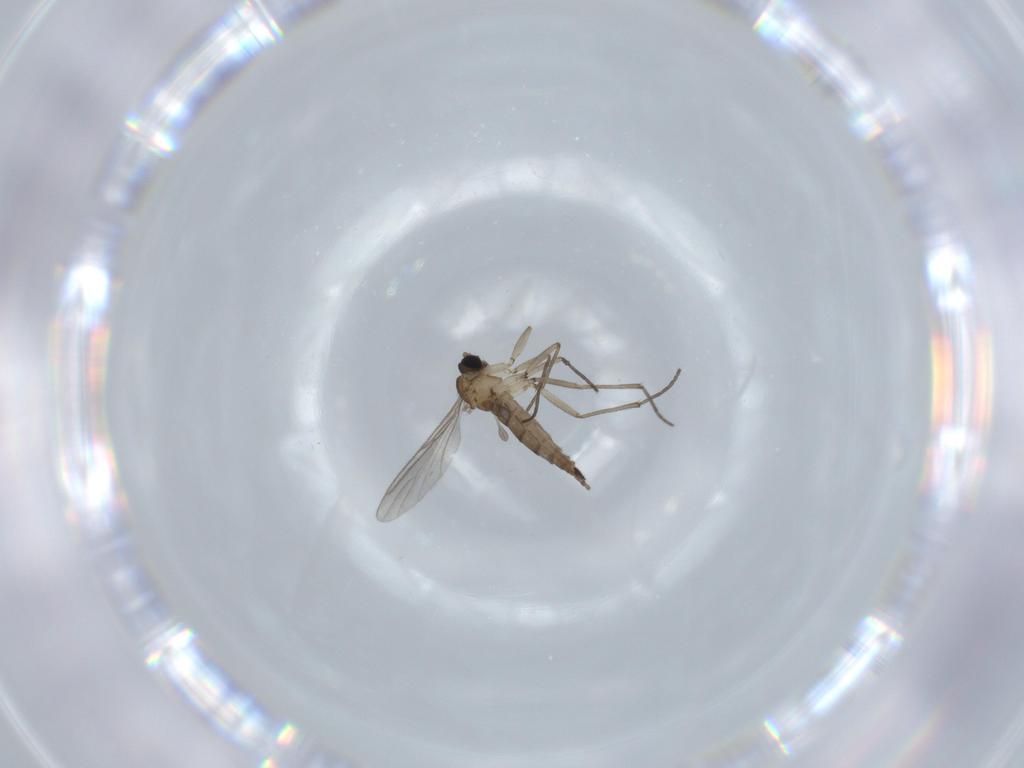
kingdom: Animalia
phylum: Arthropoda
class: Insecta
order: Diptera
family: Sciaridae
